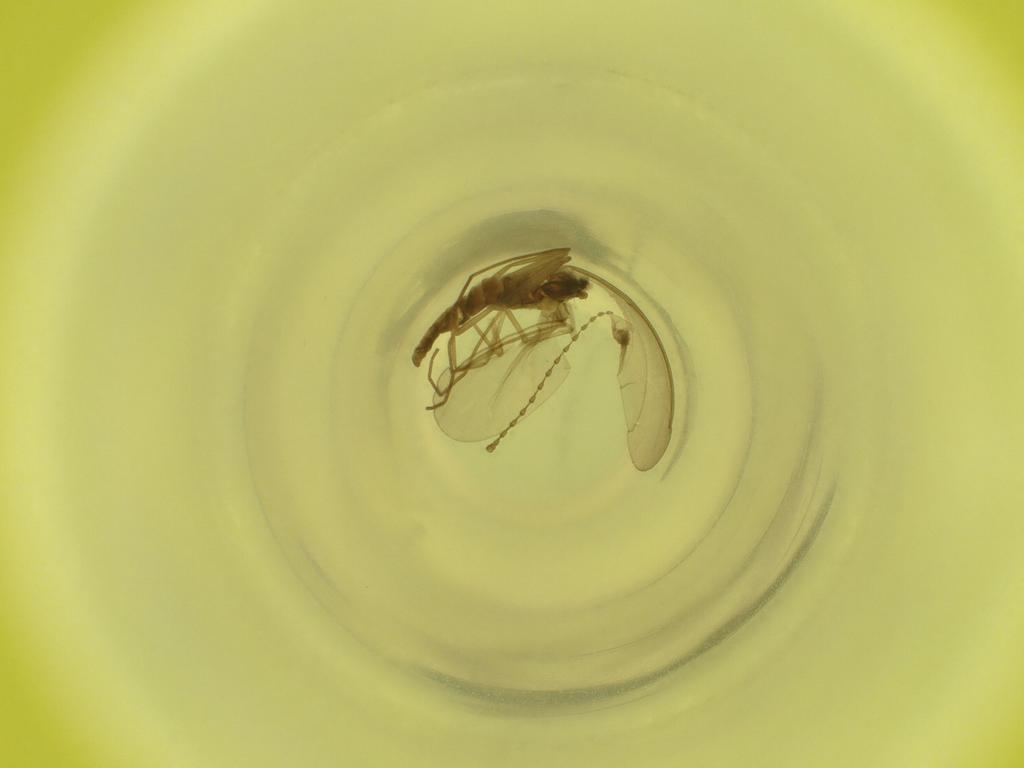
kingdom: Animalia
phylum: Arthropoda
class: Insecta
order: Diptera
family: Cecidomyiidae
